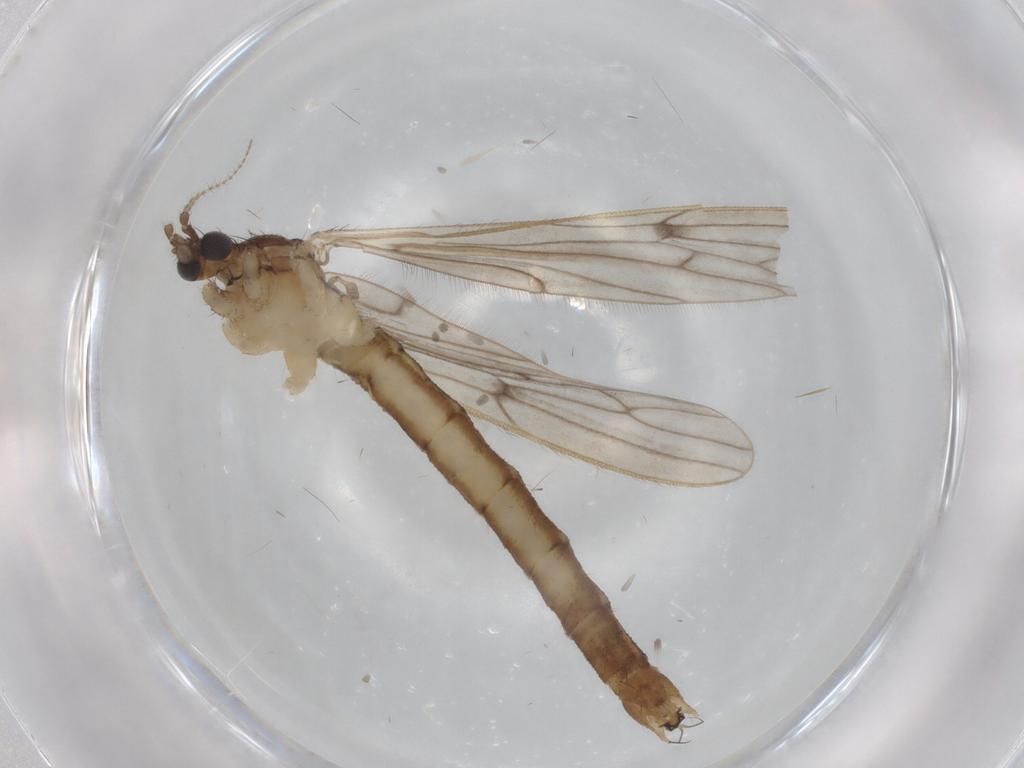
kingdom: Animalia
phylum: Arthropoda
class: Insecta
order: Diptera
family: Limoniidae
